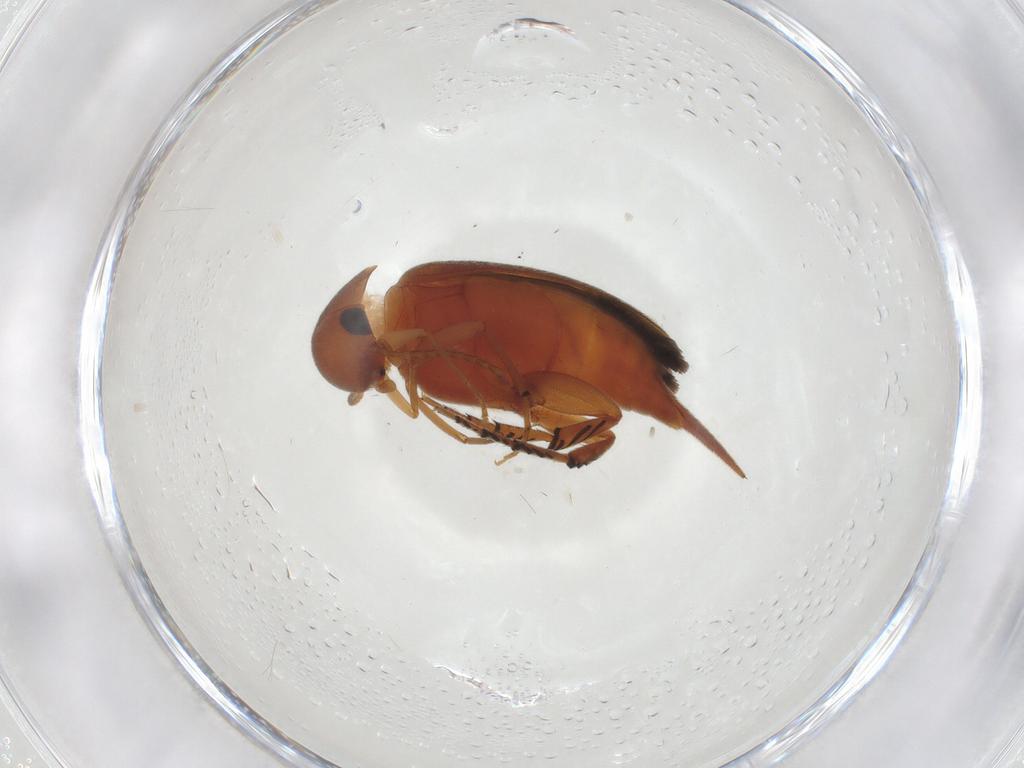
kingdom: Animalia
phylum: Arthropoda
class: Insecta
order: Coleoptera
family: Mordellidae
